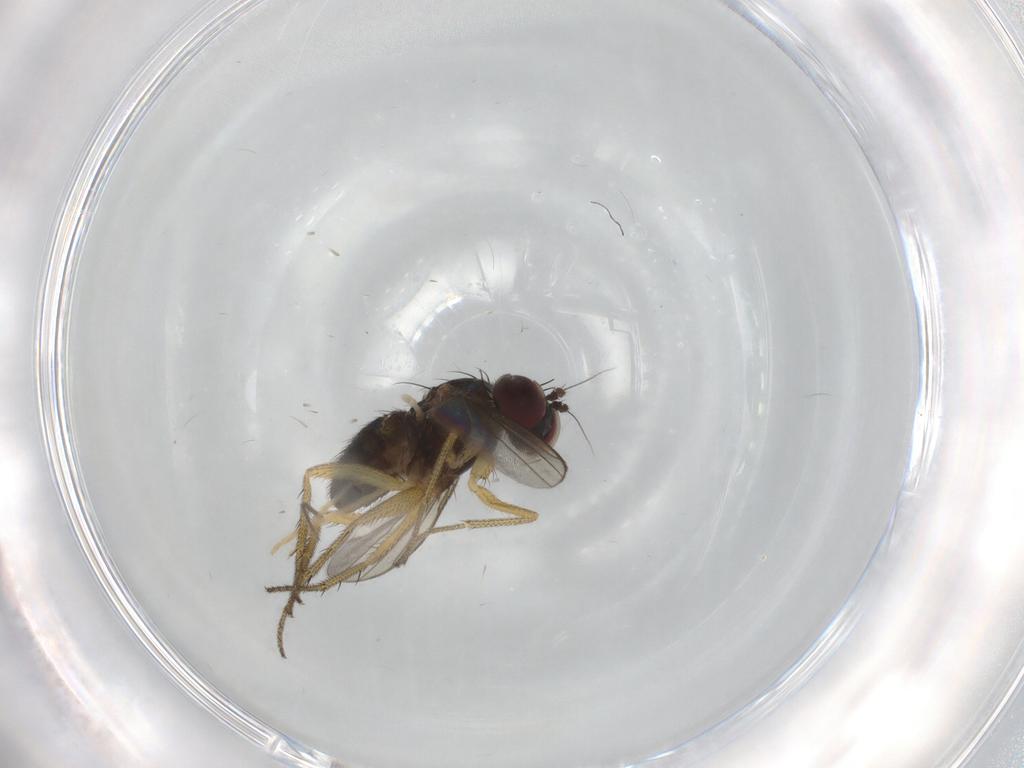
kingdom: Animalia
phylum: Arthropoda
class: Insecta
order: Diptera
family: Dolichopodidae
